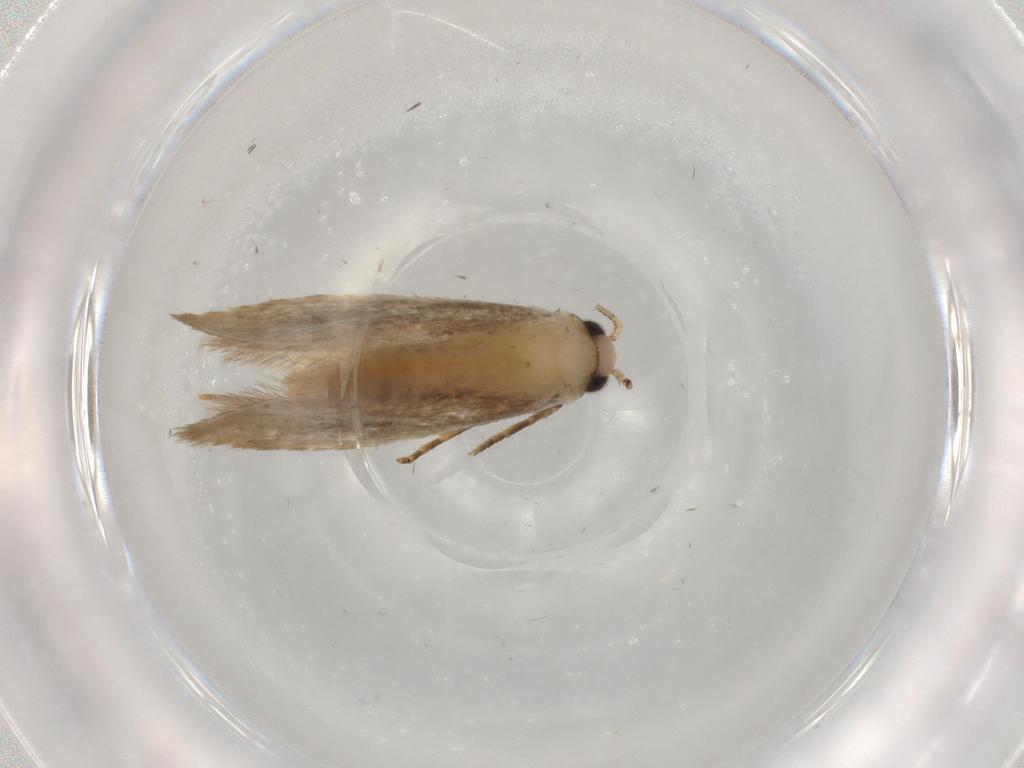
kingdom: Animalia
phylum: Arthropoda
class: Insecta
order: Lepidoptera
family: Tineidae
